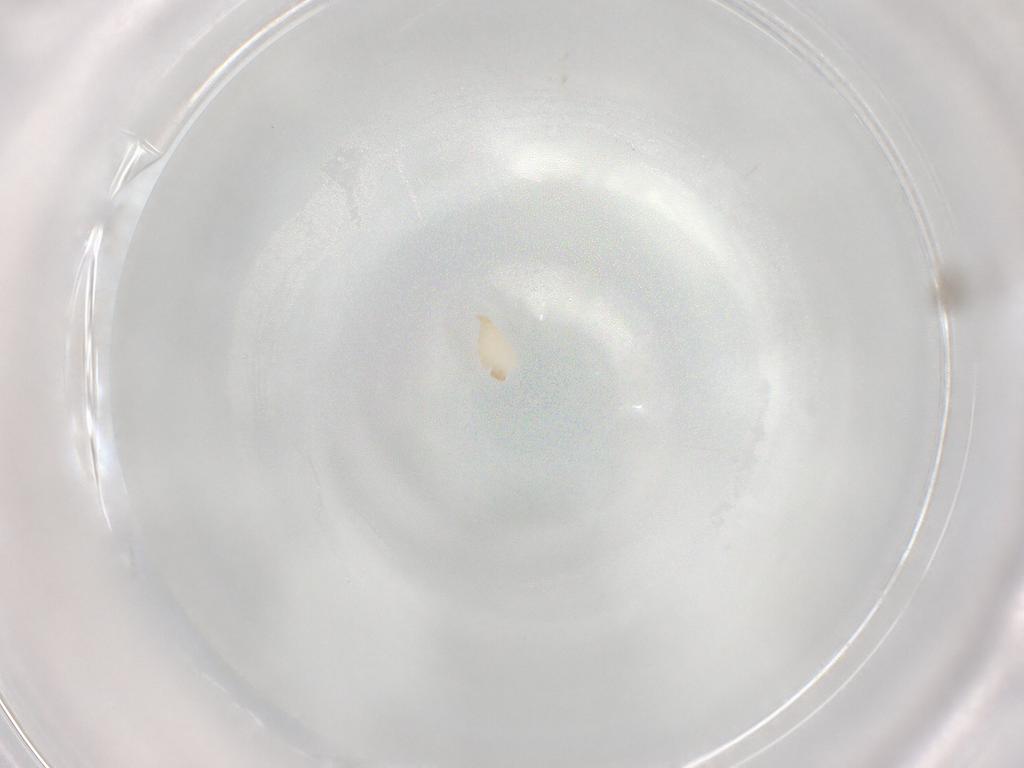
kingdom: Animalia
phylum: Arthropoda
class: Insecta
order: Diptera
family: Cecidomyiidae
